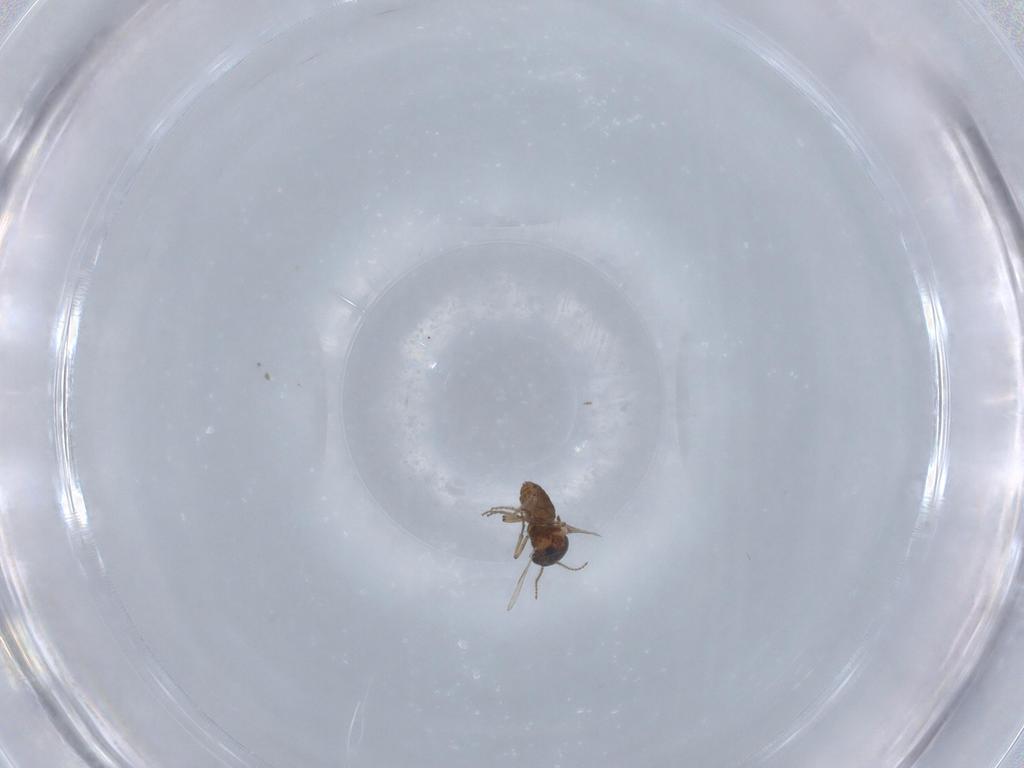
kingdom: Animalia
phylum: Arthropoda
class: Insecta
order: Diptera
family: Ceratopogonidae
